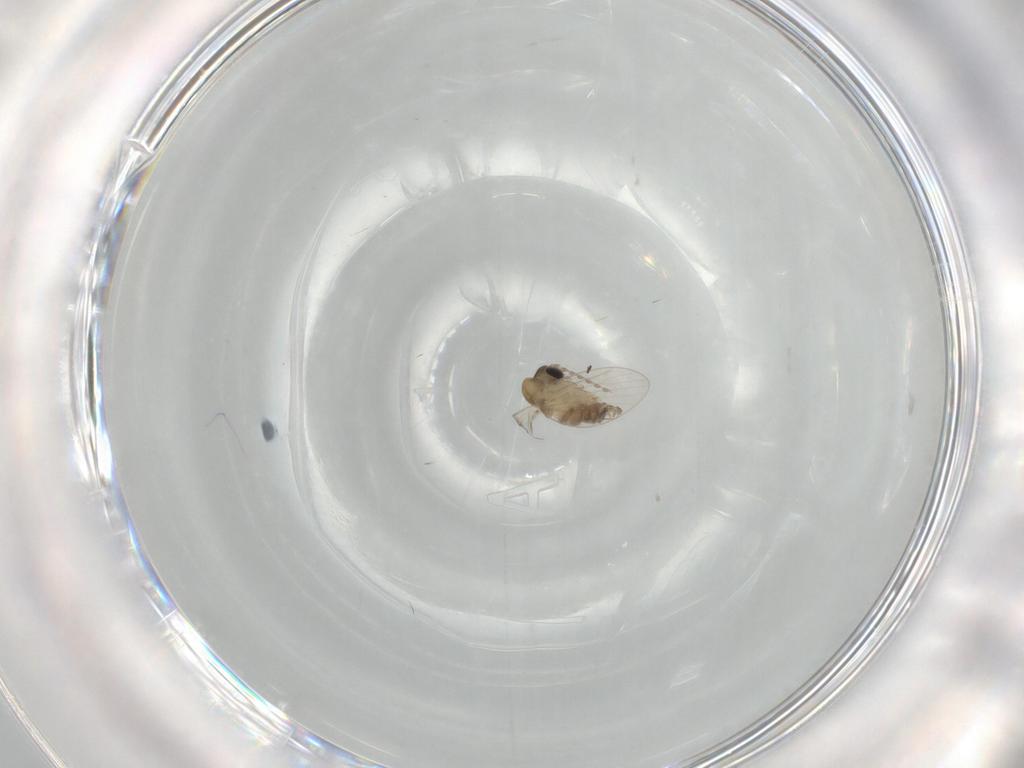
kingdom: Animalia
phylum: Arthropoda
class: Insecta
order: Diptera
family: Psychodidae
